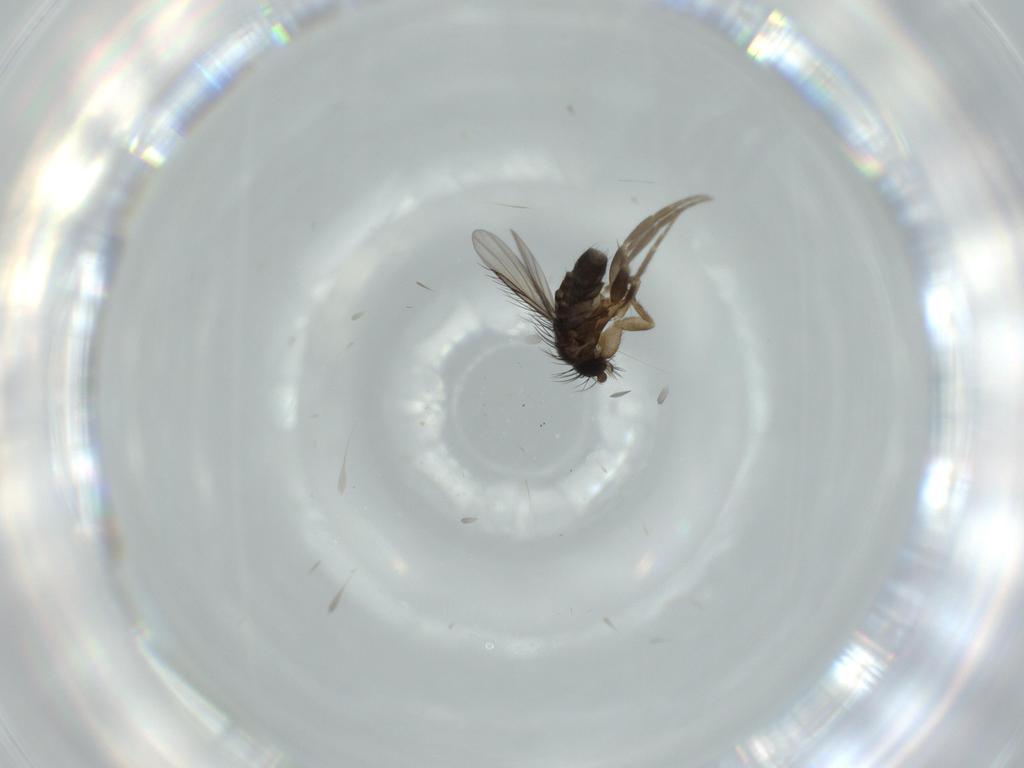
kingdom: Animalia
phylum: Arthropoda
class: Insecta
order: Diptera
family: Phoridae
